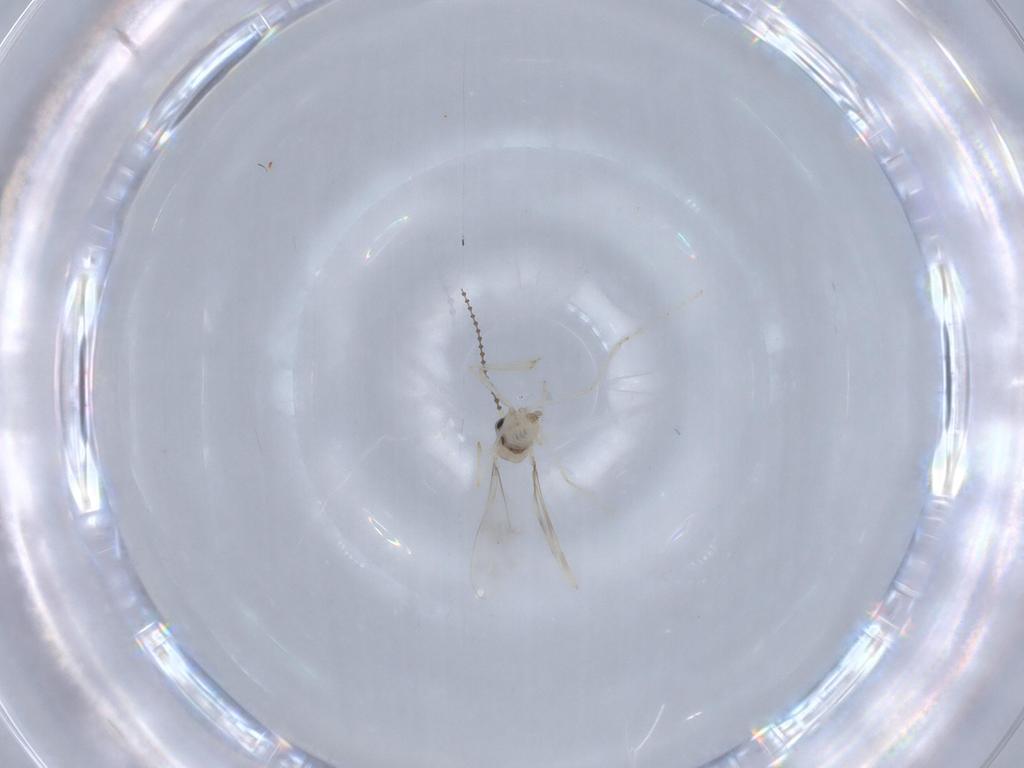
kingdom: Animalia
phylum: Arthropoda
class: Insecta
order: Diptera
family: Cecidomyiidae
